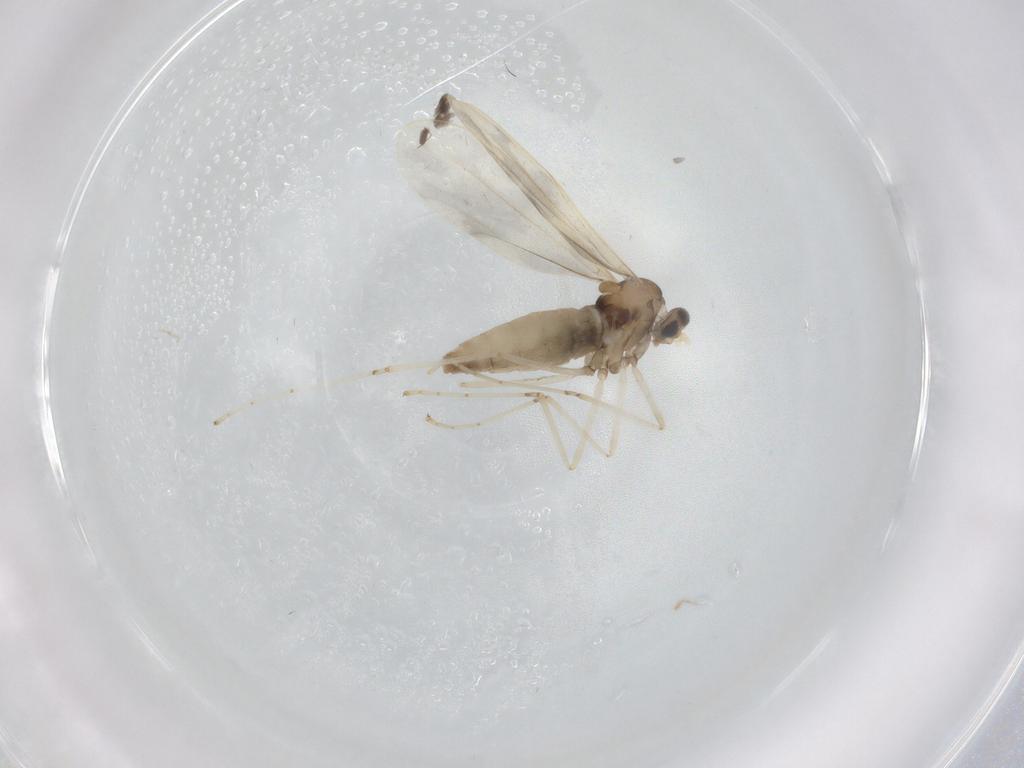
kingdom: Animalia
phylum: Arthropoda
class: Insecta
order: Diptera
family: Cecidomyiidae
